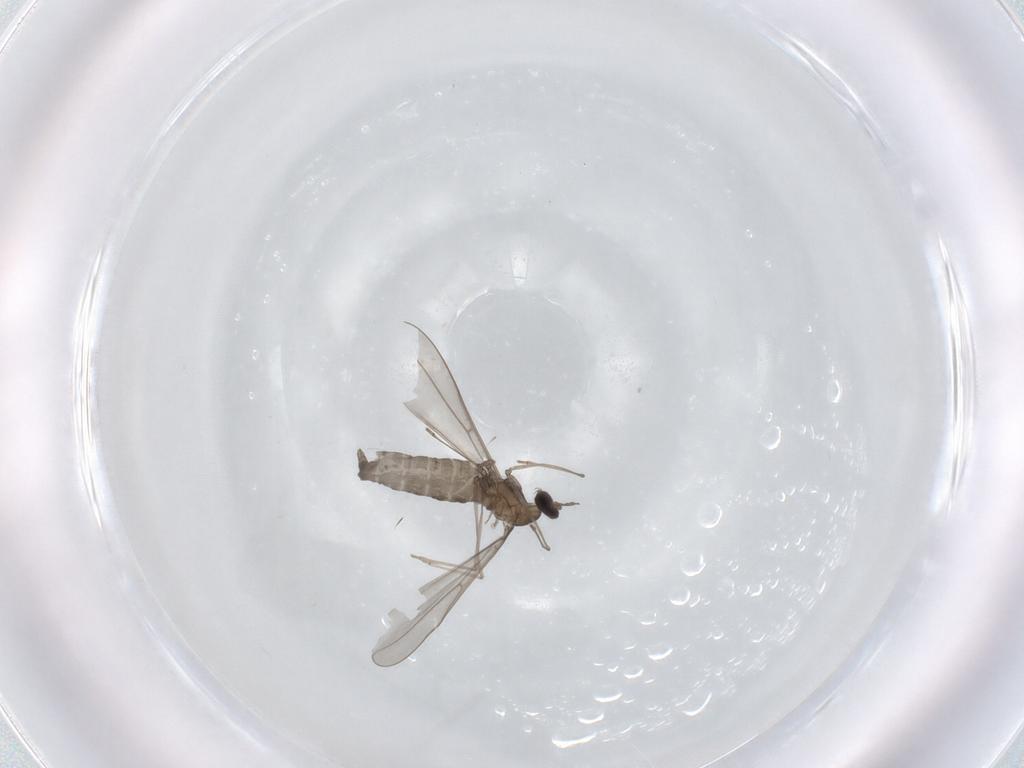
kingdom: Animalia
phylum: Arthropoda
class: Insecta
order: Diptera
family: Cecidomyiidae
